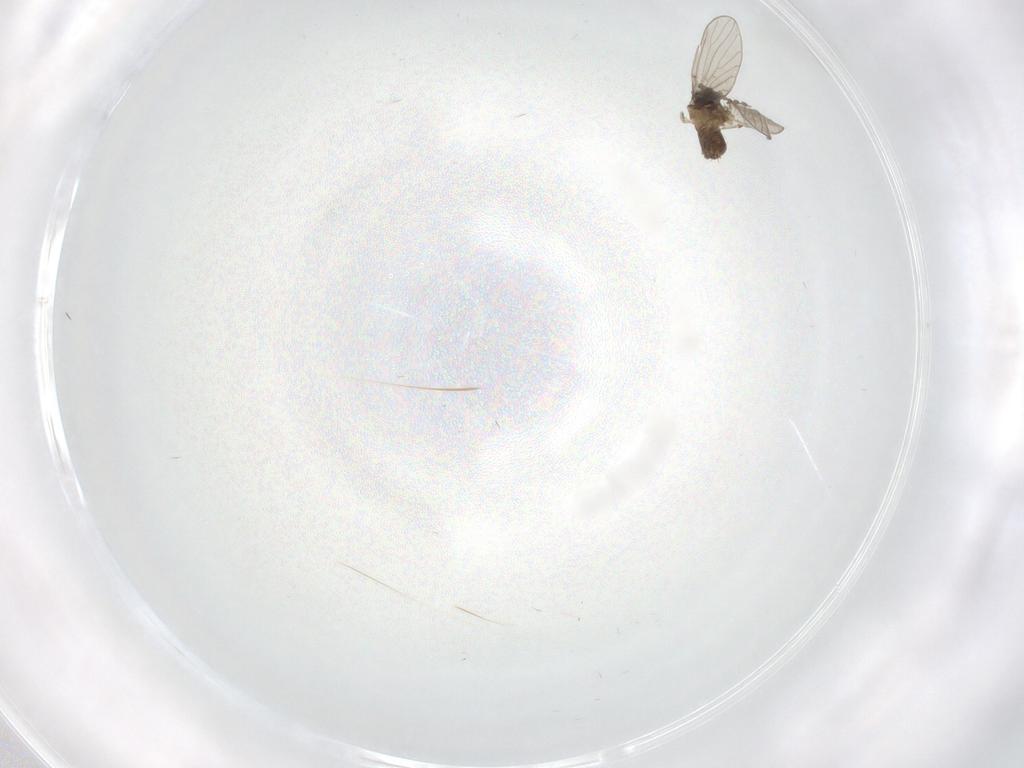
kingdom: Animalia
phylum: Arthropoda
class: Insecta
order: Diptera
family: Psychodidae
